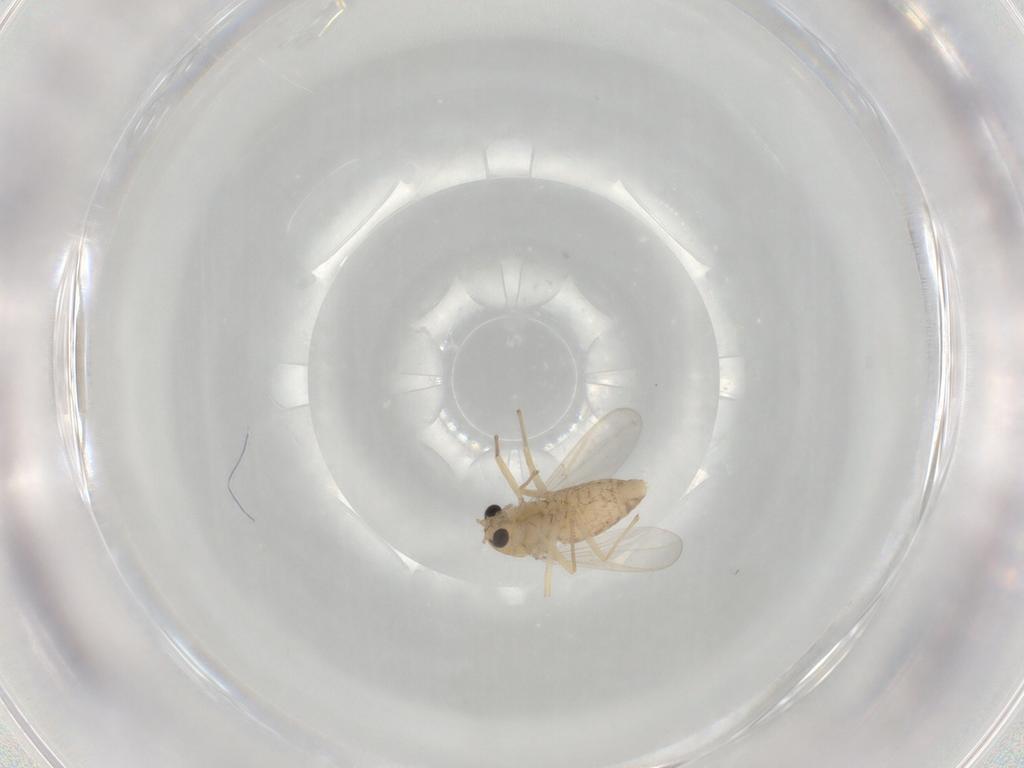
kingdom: Animalia
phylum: Arthropoda
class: Insecta
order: Diptera
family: Chironomidae
